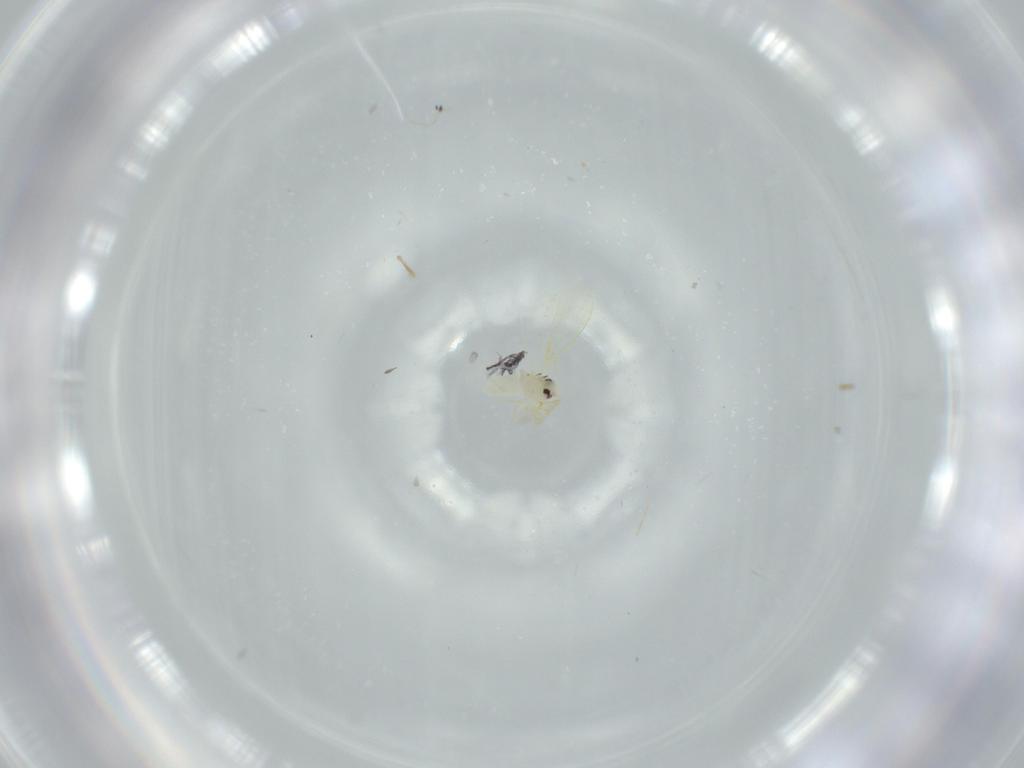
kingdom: Animalia
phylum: Arthropoda
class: Insecta
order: Hemiptera
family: Aleyrodidae
